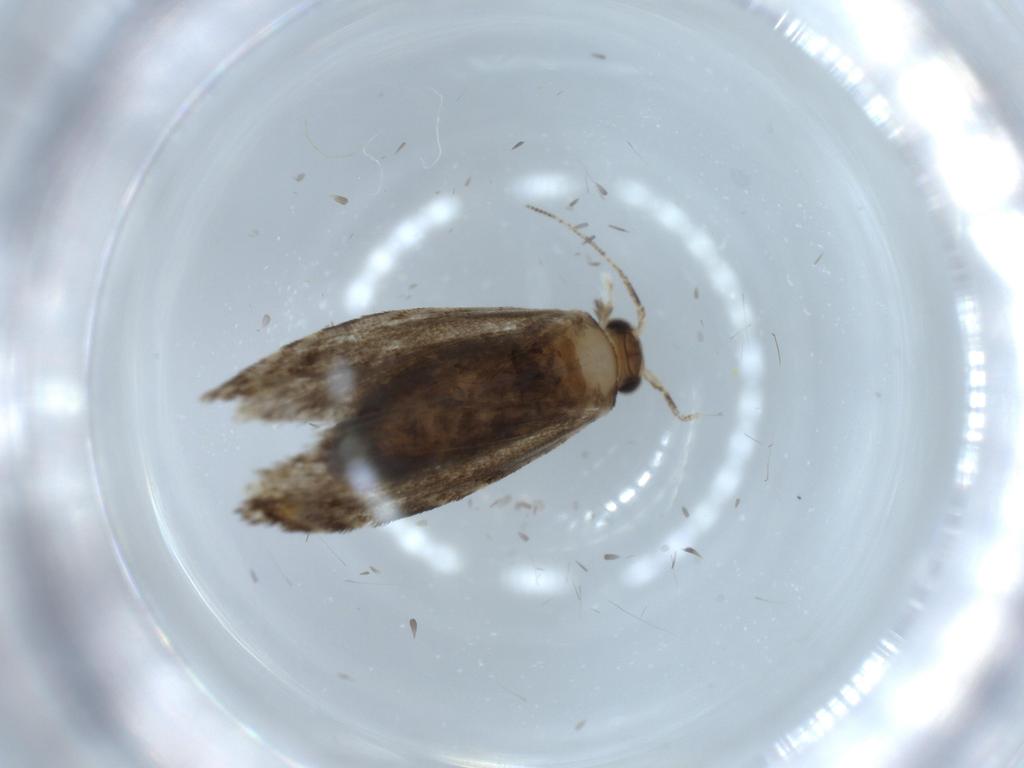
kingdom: Animalia
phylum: Arthropoda
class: Insecta
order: Lepidoptera
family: Tineidae
